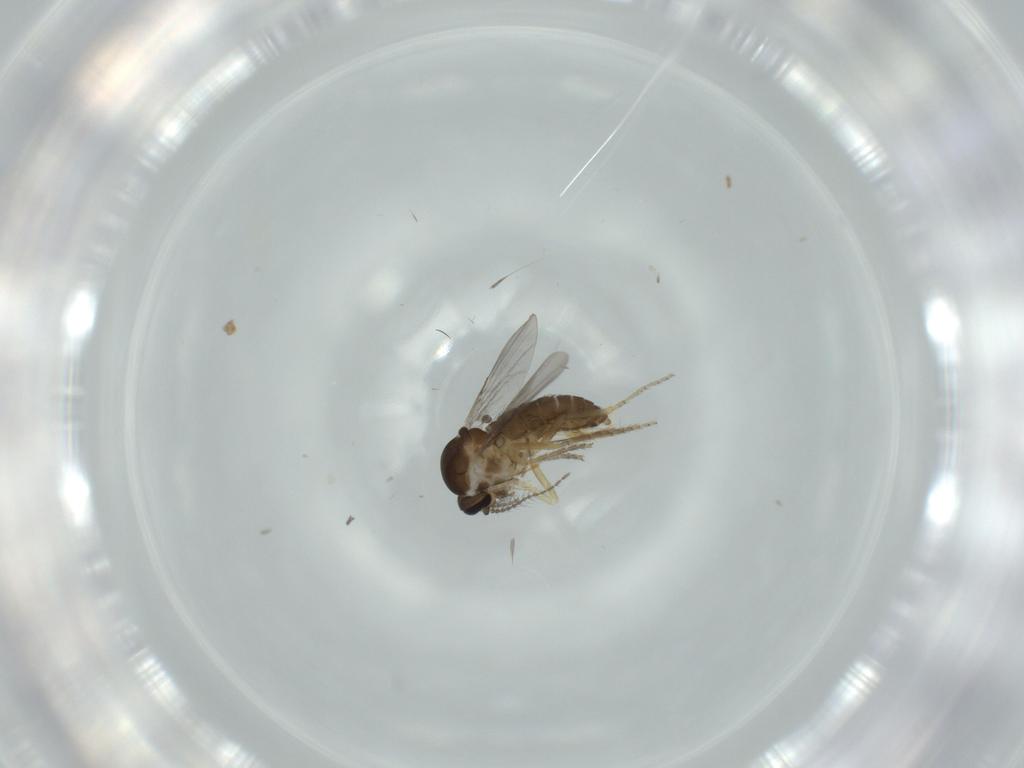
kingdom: Animalia
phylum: Arthropoda
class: Insecta
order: Diptera
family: Ceratopogonidae
